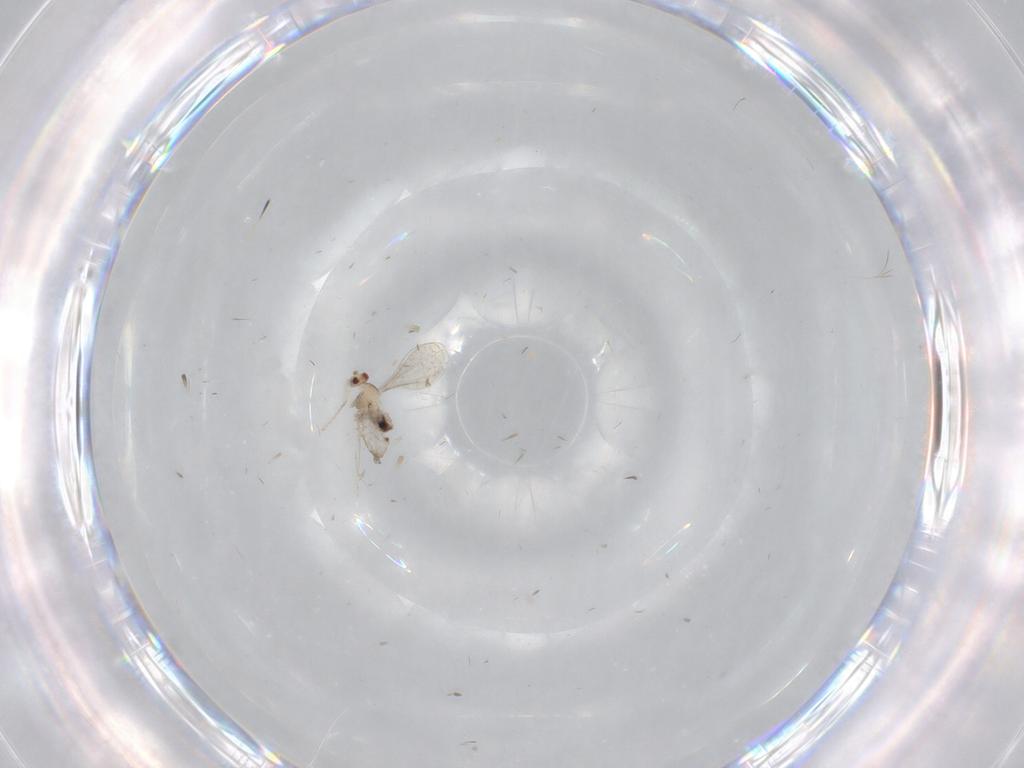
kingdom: Animalia
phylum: Arthropoda
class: Insecta
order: Diptera
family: Cecidomyiidae
